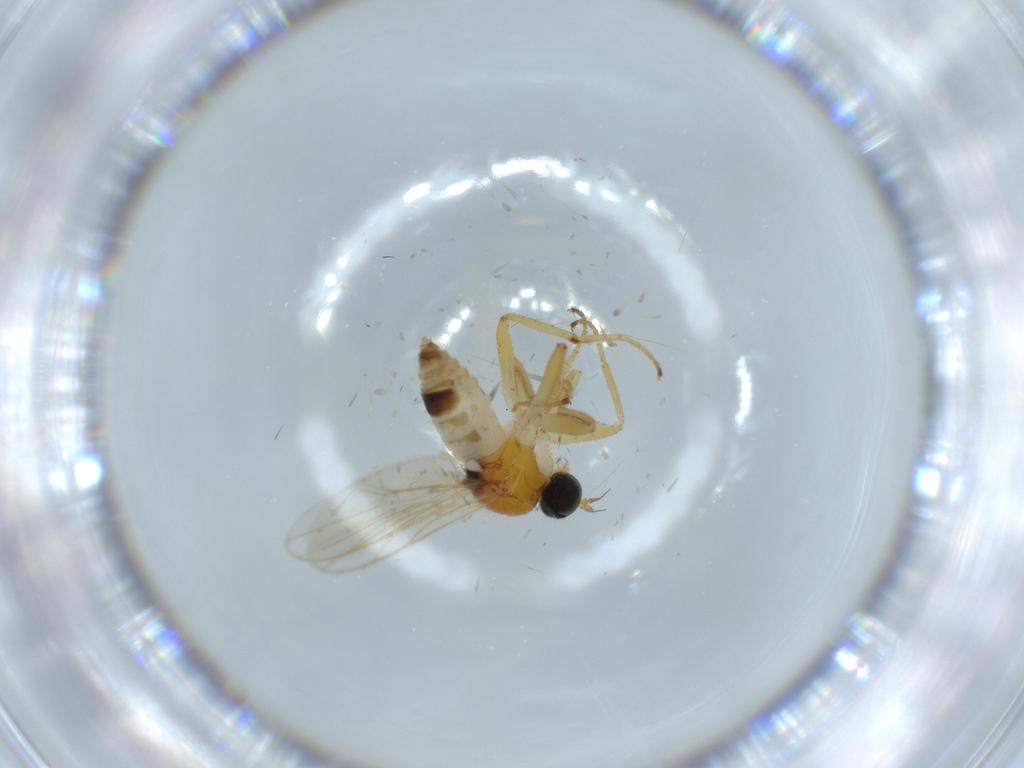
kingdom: Animalia
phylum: Arthropoda
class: Insecta
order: Diptera
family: Hybotidae
